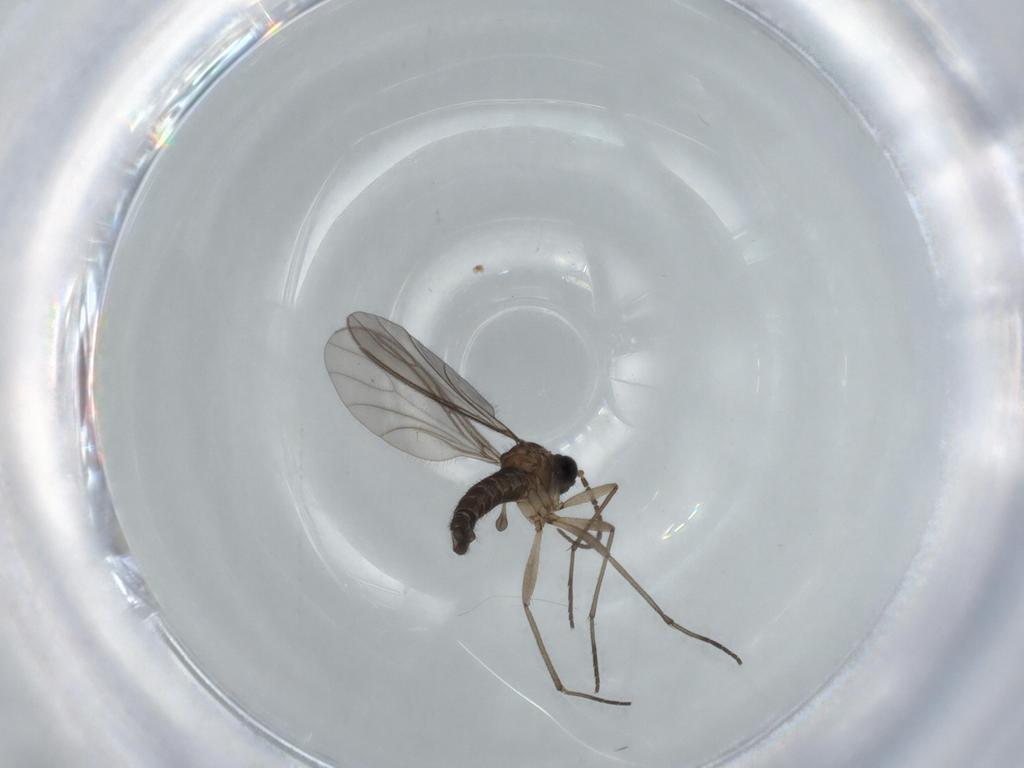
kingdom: Animalia
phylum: Arthropoda
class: Insecta
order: Diptera
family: Sciaridae
